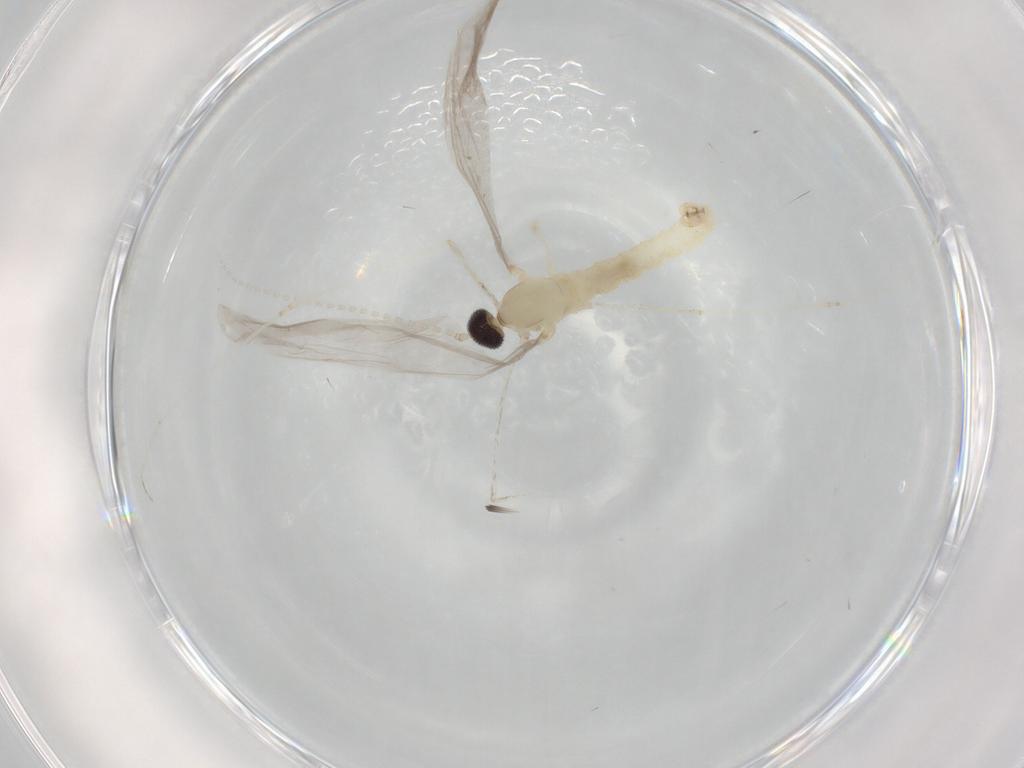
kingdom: Animalia
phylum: Arthropoda
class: Insecta
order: Diptera
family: Cecidomyiidae
